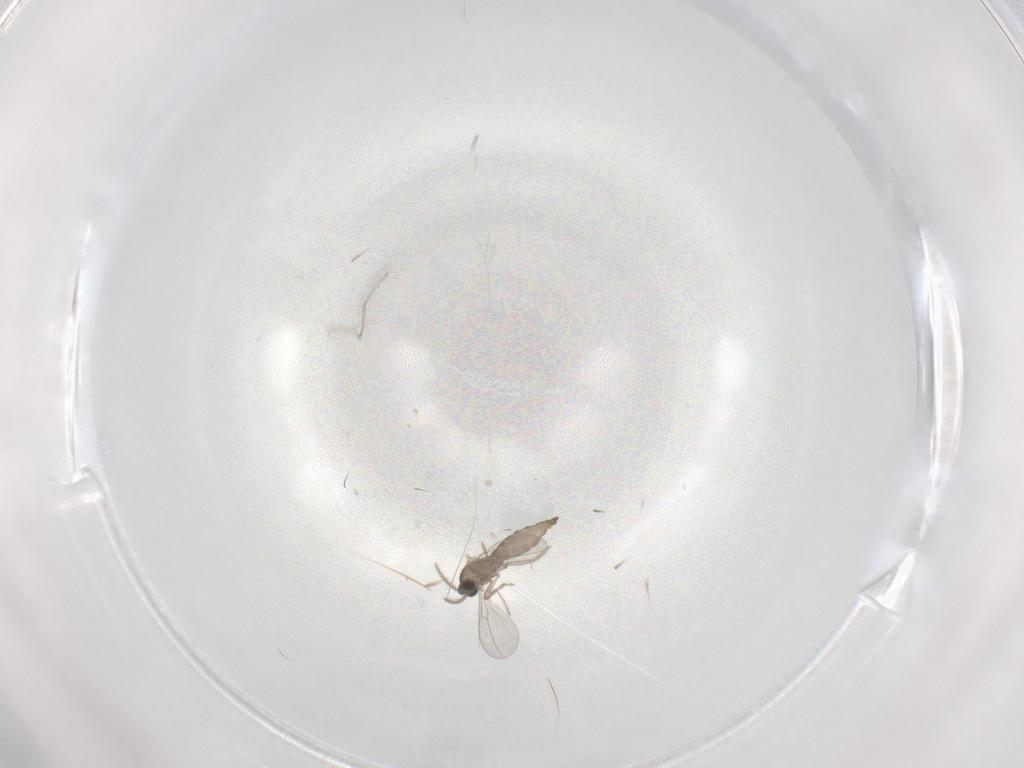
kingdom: Animalia
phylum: Arthropoda
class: Insecta
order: Diptera
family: Cecidomyiidae
